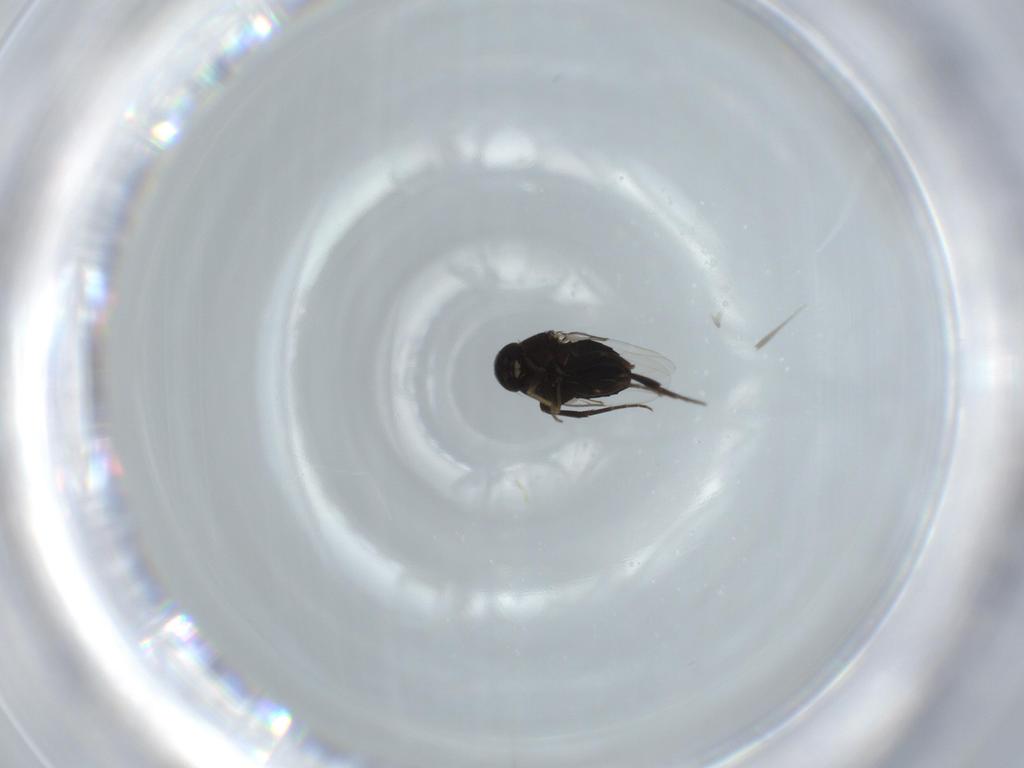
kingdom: Animalia
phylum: Arthropoda
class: Insecta
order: Diptera
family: Phoridae
